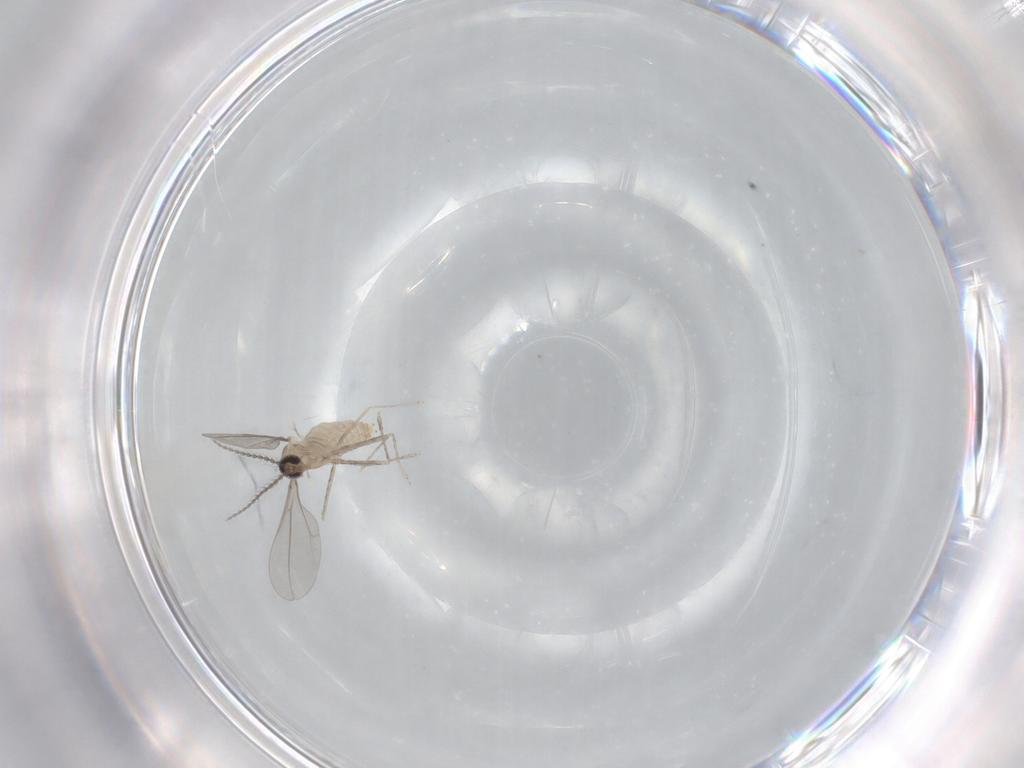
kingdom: Animalia
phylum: Arthropoda
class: Insecta
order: Diptera
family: Cecidomyiidae
